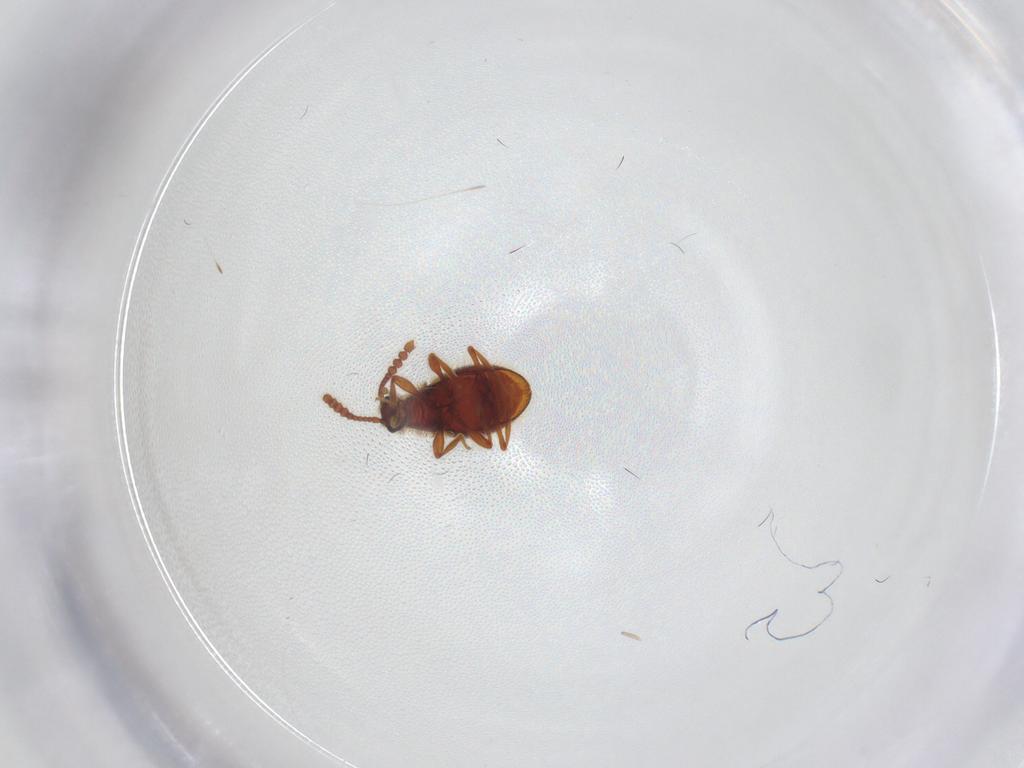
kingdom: Animalia
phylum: Arthropoda
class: Insecta
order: Coleoptera
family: Staphylinidae
